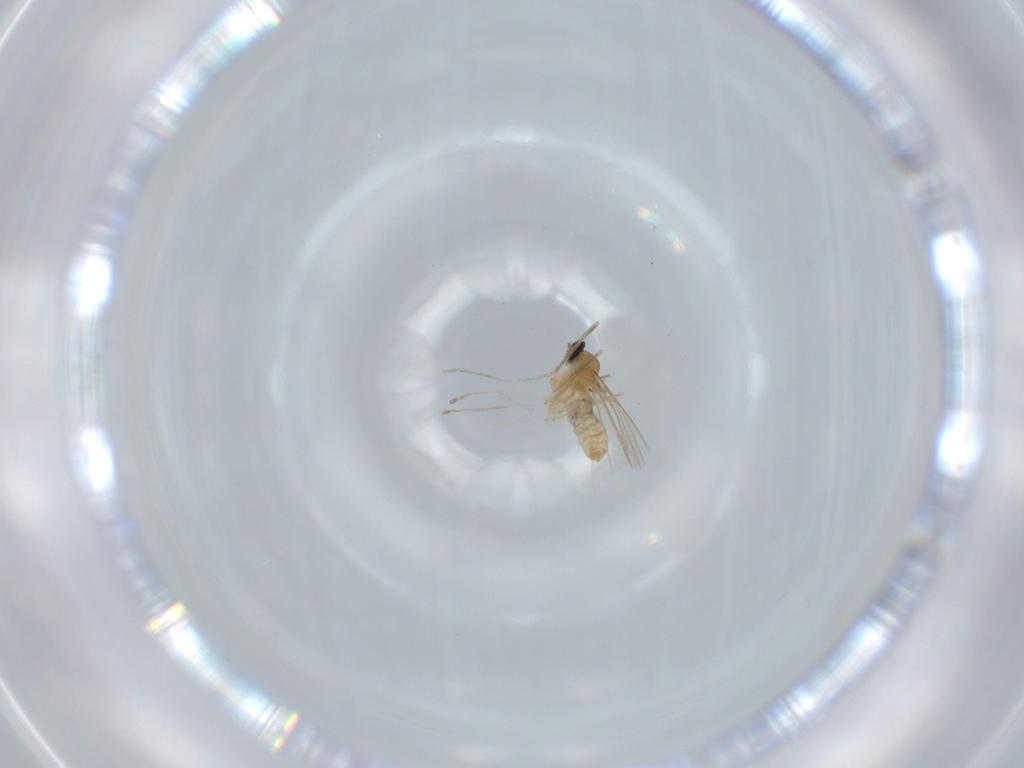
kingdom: Animalia
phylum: Arthropoda
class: Insecta
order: Diptera
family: Cecidomyiidae
